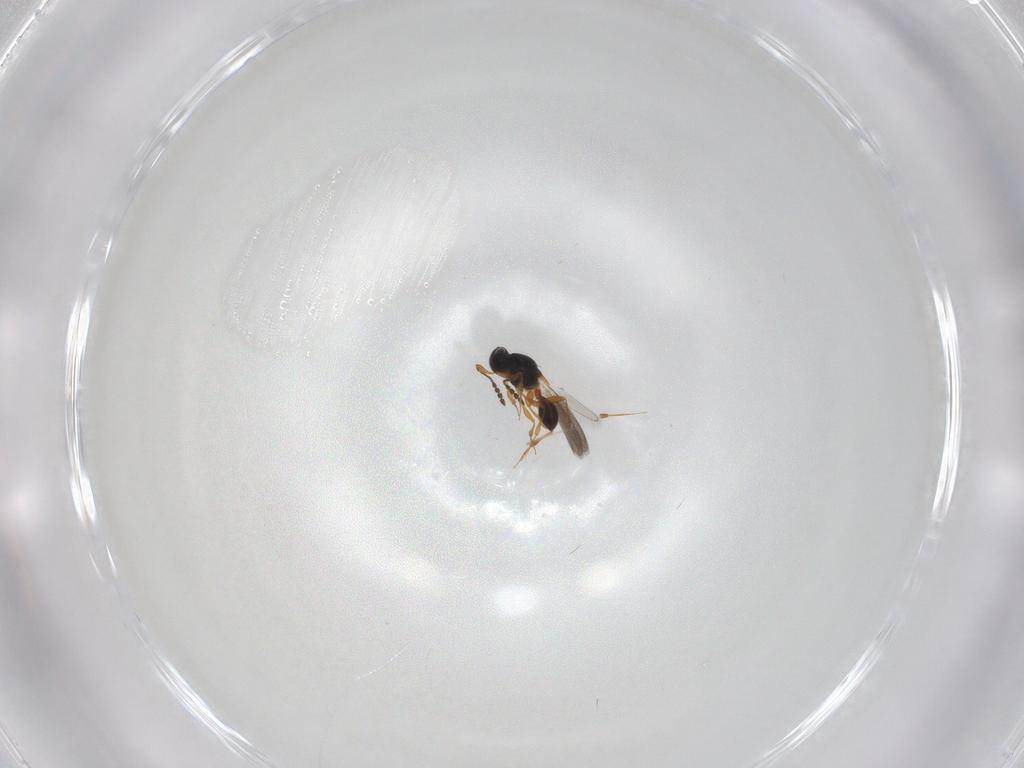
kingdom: Animalia
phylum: Arthropoda
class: Insecta
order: Hymenoptera
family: Platygastridae
